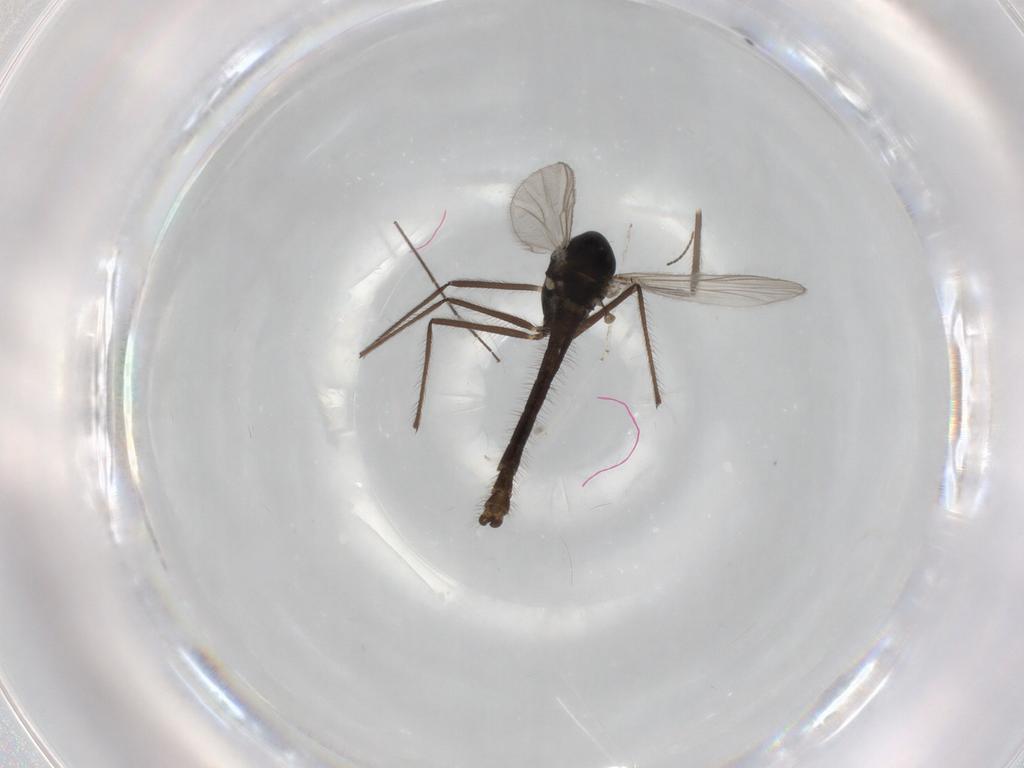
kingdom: Animalia
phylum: Arthropoda
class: Insecta
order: Diptera
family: Chironomidae
